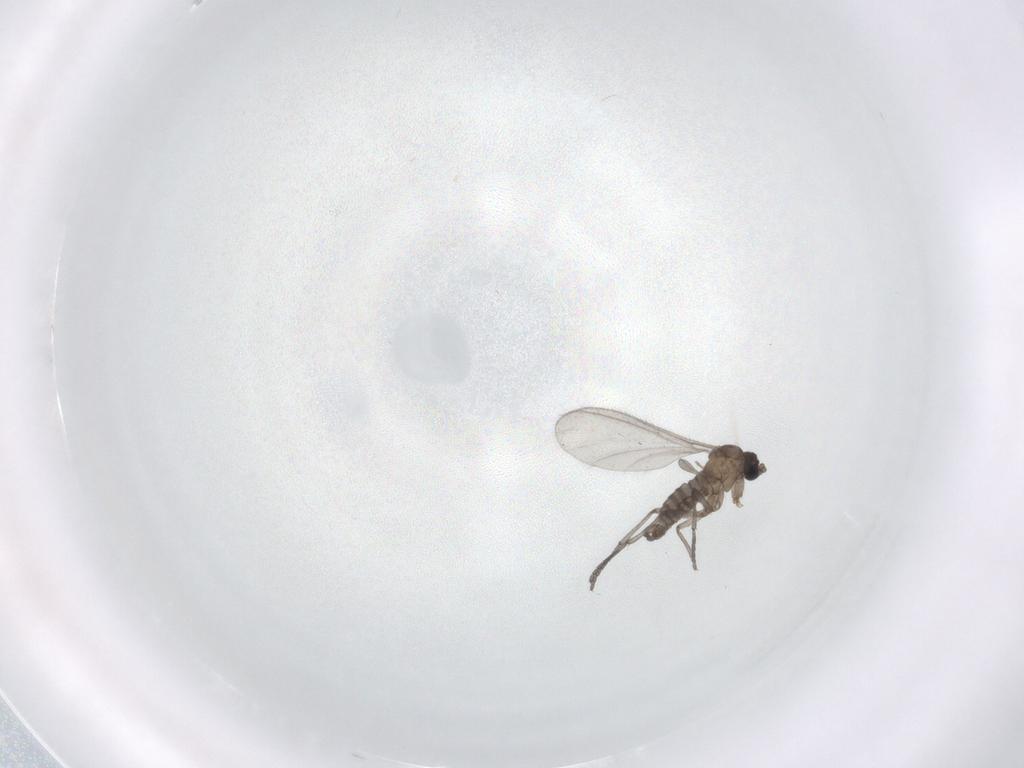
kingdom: Animalia
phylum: Arthropoda
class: Insecta
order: Diptera
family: Sciaridae
